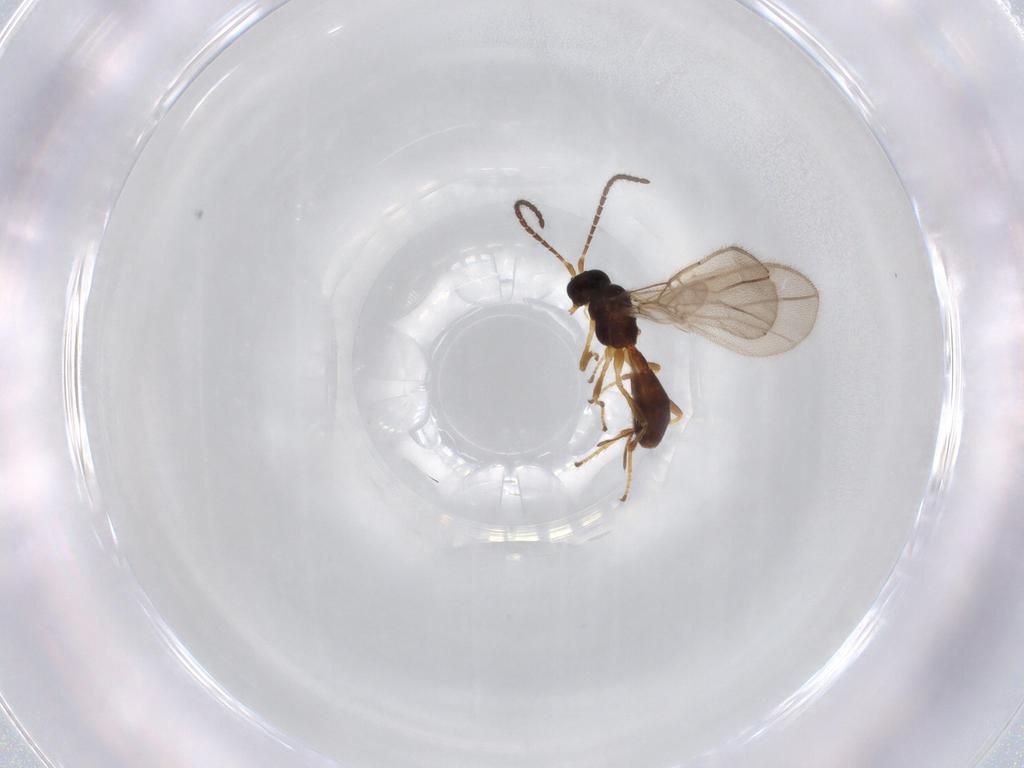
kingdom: Animalia
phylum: Arthropoda
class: Insecta
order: Hymenoptera
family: Braconidae
